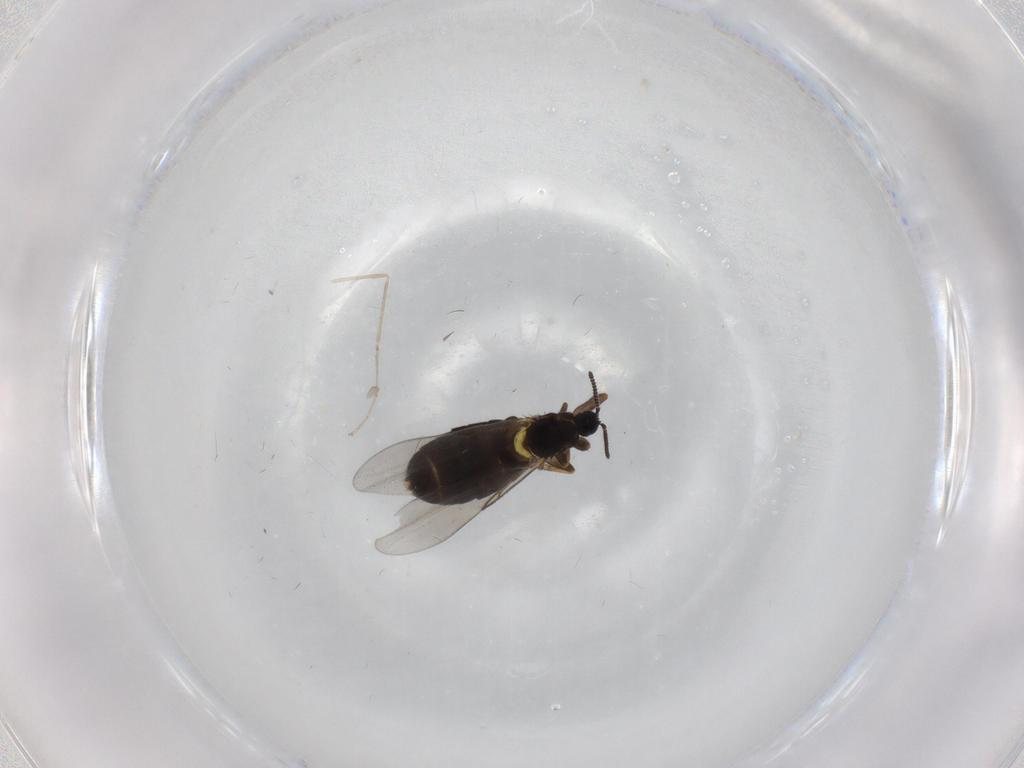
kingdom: Animalia
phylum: Arthropoda
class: Insecta
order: Diptera
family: Scatopsidae
